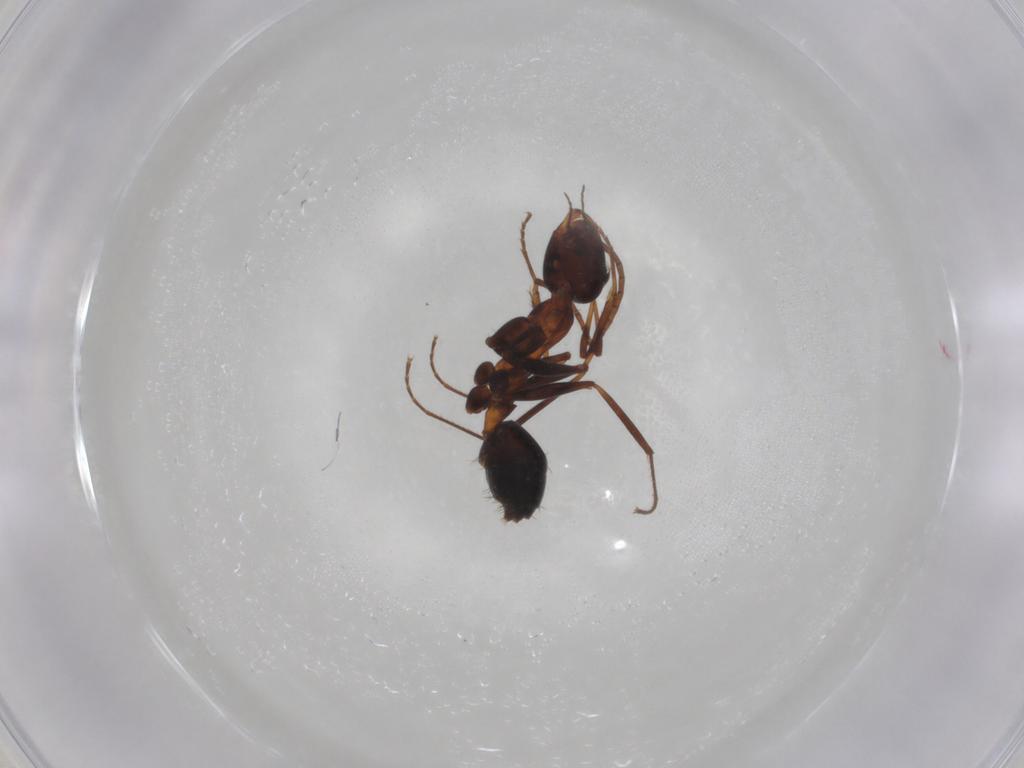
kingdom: Animalia
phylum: Arthropoda
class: Insecta
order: Hymenoptera
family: Formicidae
